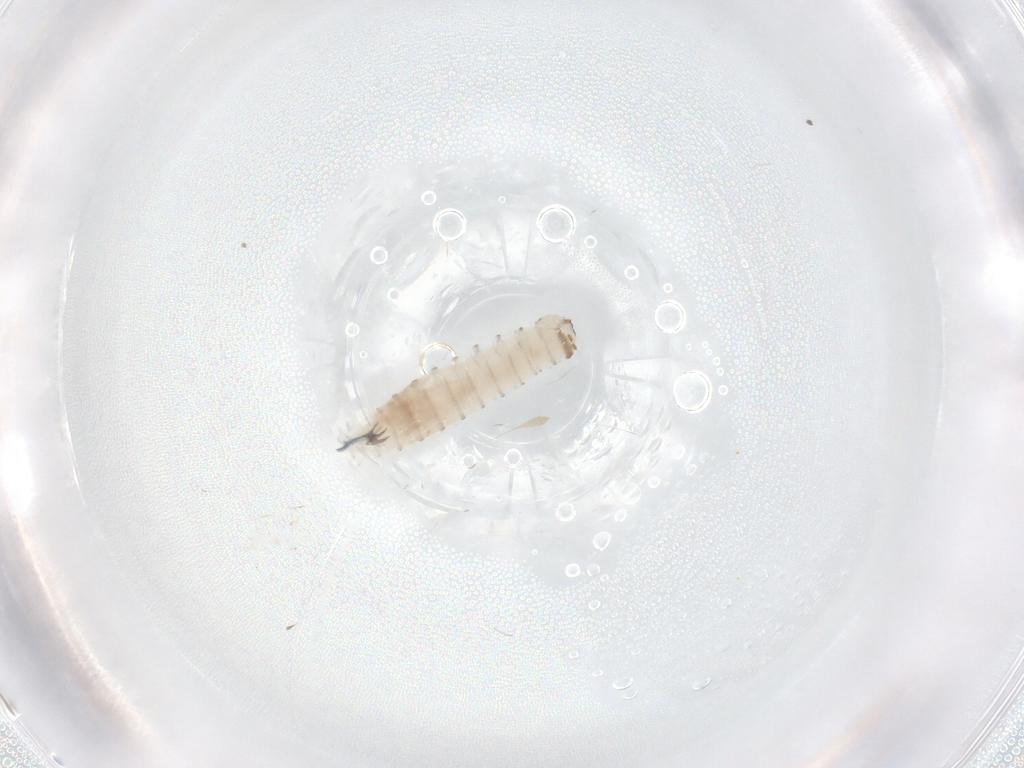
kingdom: Animalia
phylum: Arthropoda
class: Insecta
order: Diptera
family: Sarcophagidae
